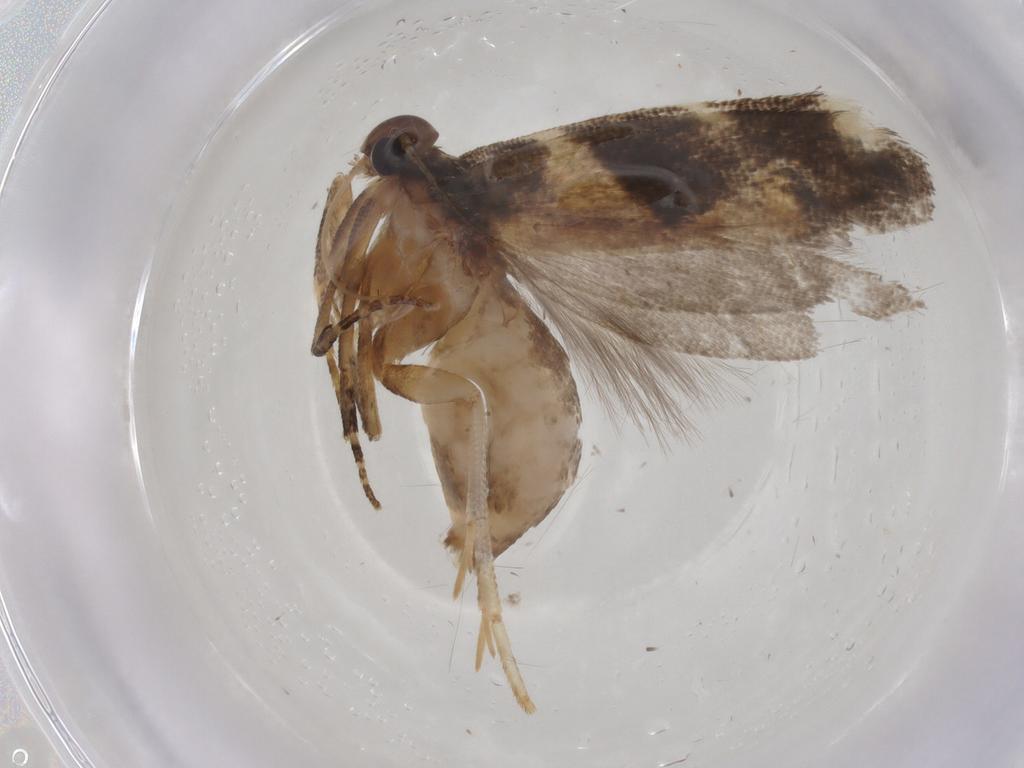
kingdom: Animalia
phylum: Arthropoda
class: Insecta
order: Lepidoptera
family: Gelechiidae
